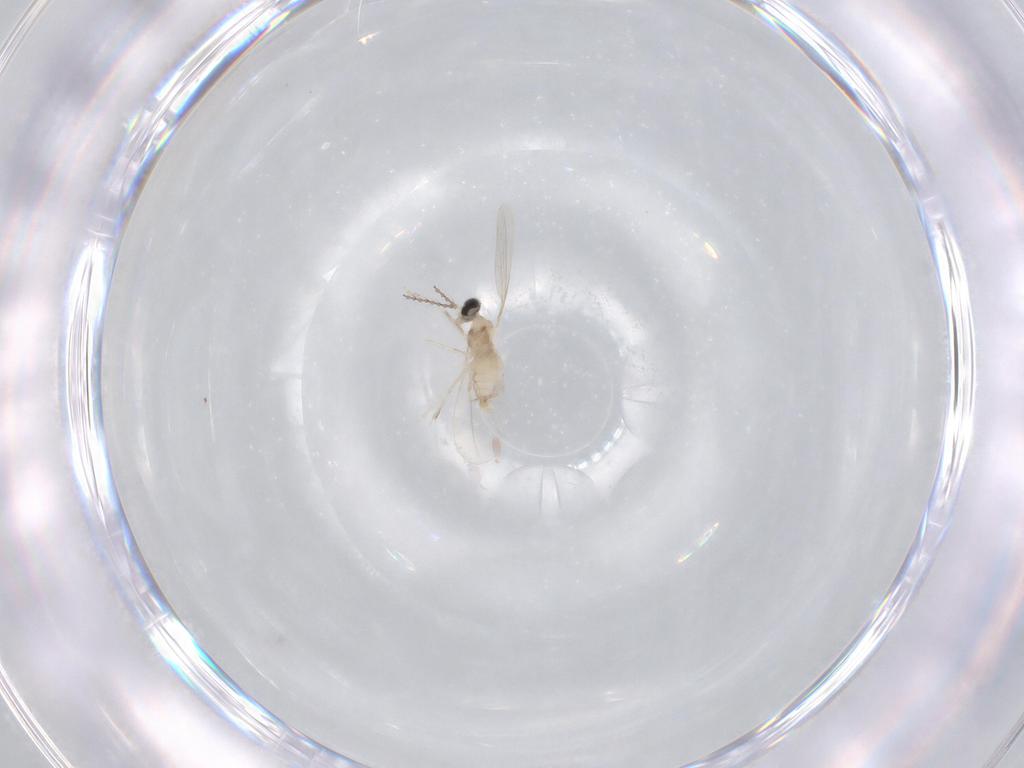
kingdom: Animalia
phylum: Arthropoda
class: Insecta
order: Diptera
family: Cecidomyiidae
